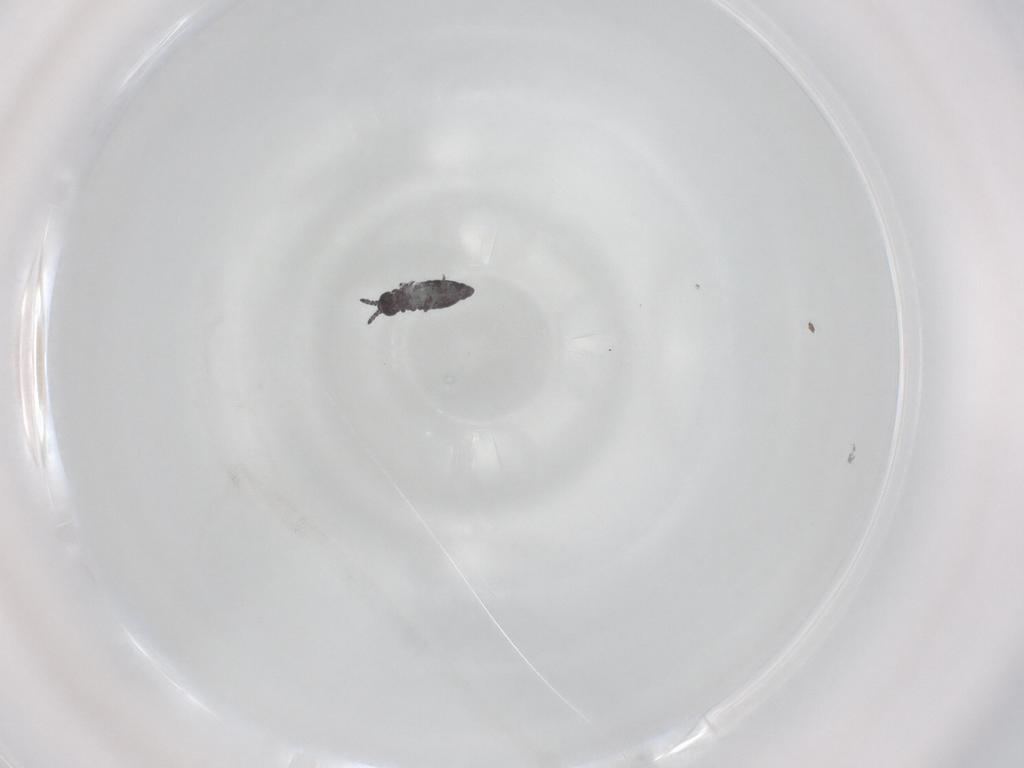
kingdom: Animalia
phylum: Arthropoda
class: Collembola
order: Poduromorpha
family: Hypogastruridae
